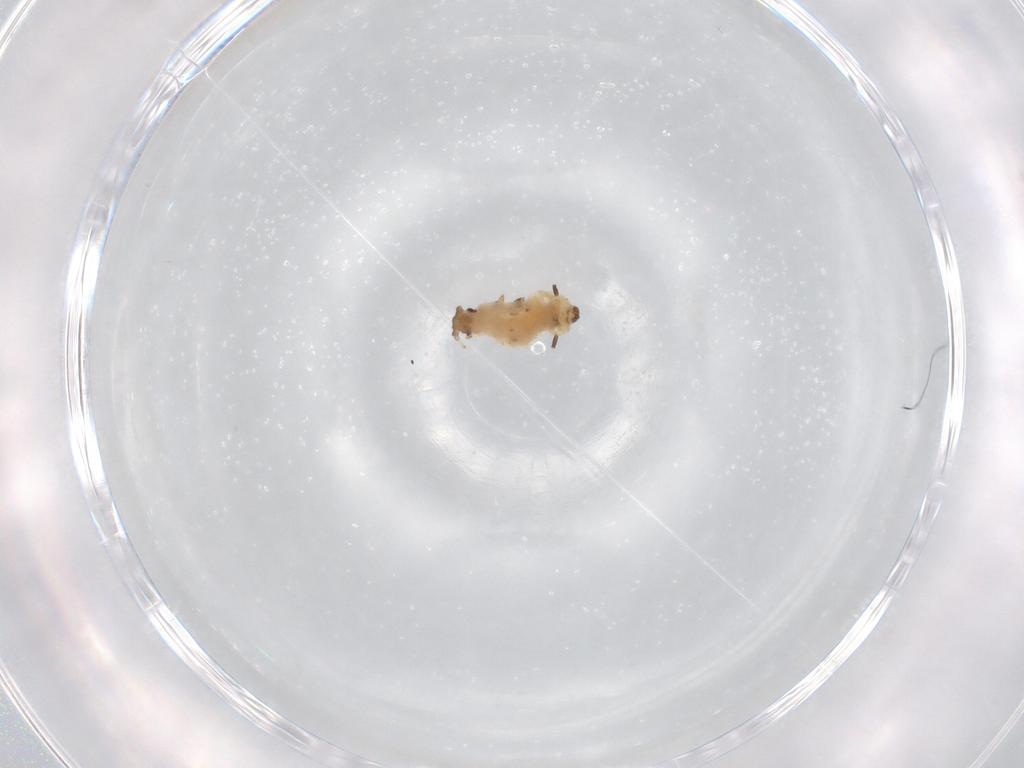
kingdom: Animalia
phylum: Arthropoda
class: Insecta
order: Hemiptera
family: Aphididae
